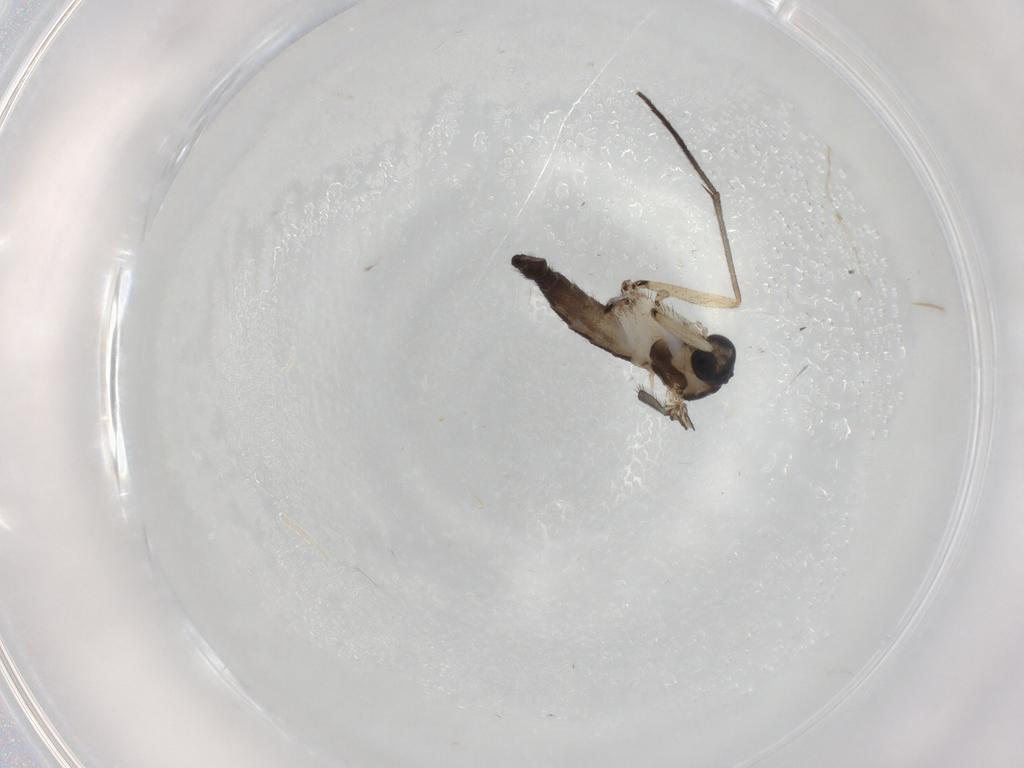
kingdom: Animalia
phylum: Arthropoda
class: Insecta
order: Diptera
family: Sciaridae
